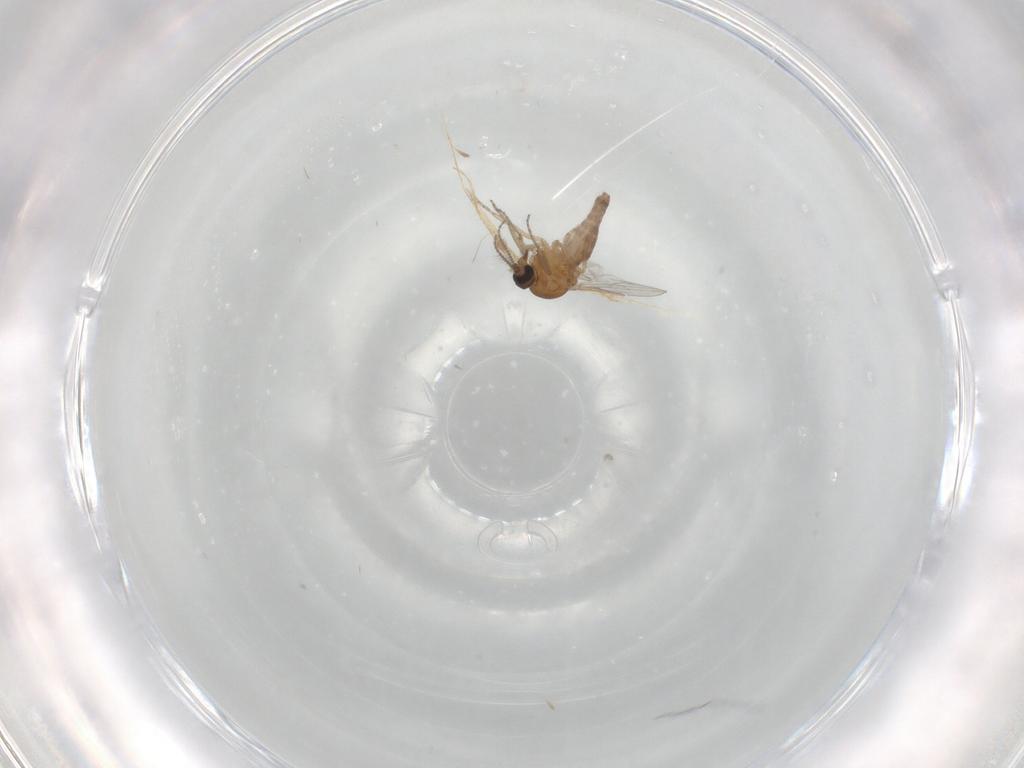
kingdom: Animalia
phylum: Arthropoda
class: Insecta
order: Diptera
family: Ceratopogonidae
